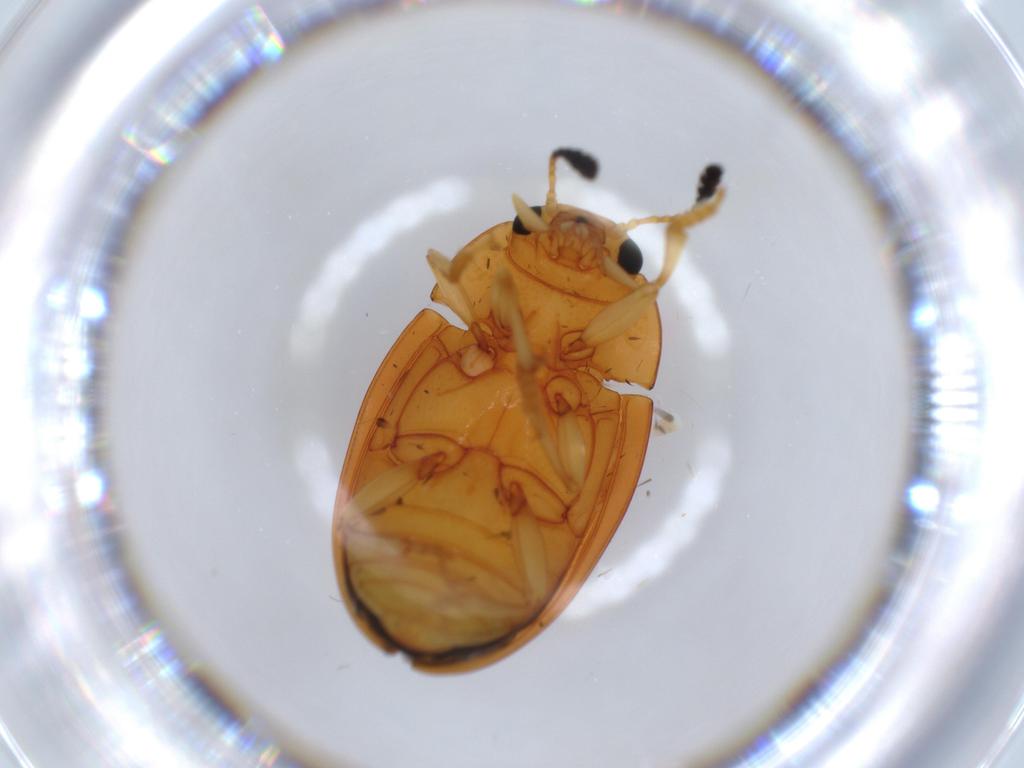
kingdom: Animalia
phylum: Arthropoda
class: Insecta
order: Coleoptera
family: Erotylidae
